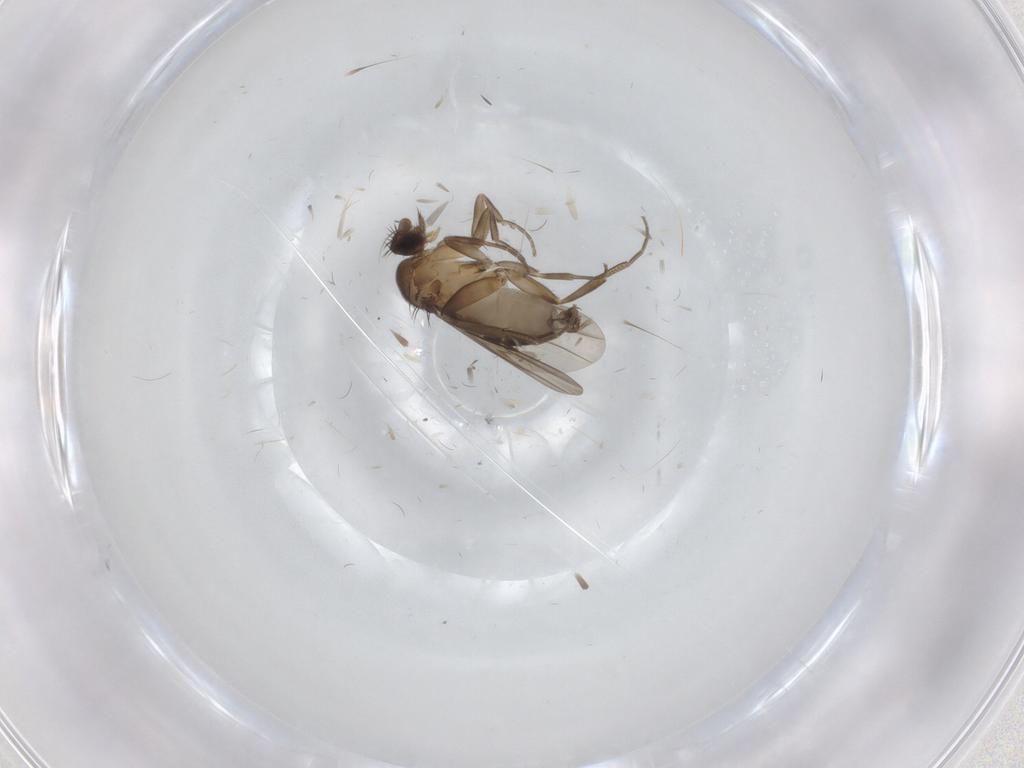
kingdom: Animalia
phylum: Arthropoda
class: Insecta
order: Diptera
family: Phoridae
